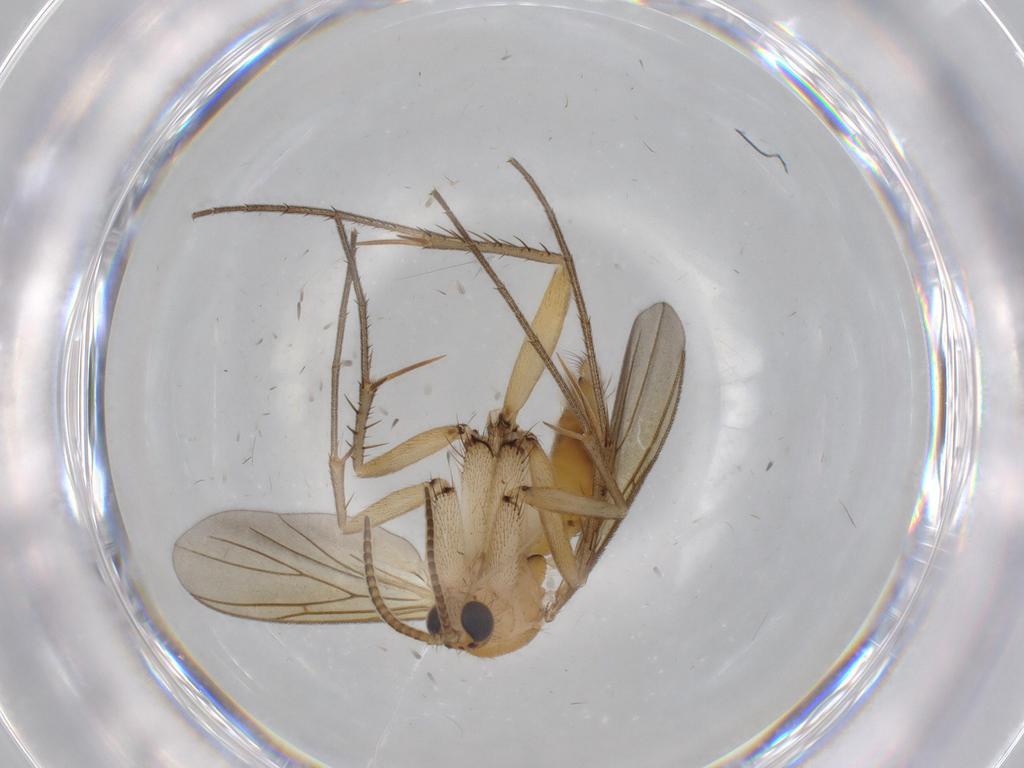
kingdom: Animalia
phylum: Arthropoda
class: Insecta
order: Diptera
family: Mycetophilidae
